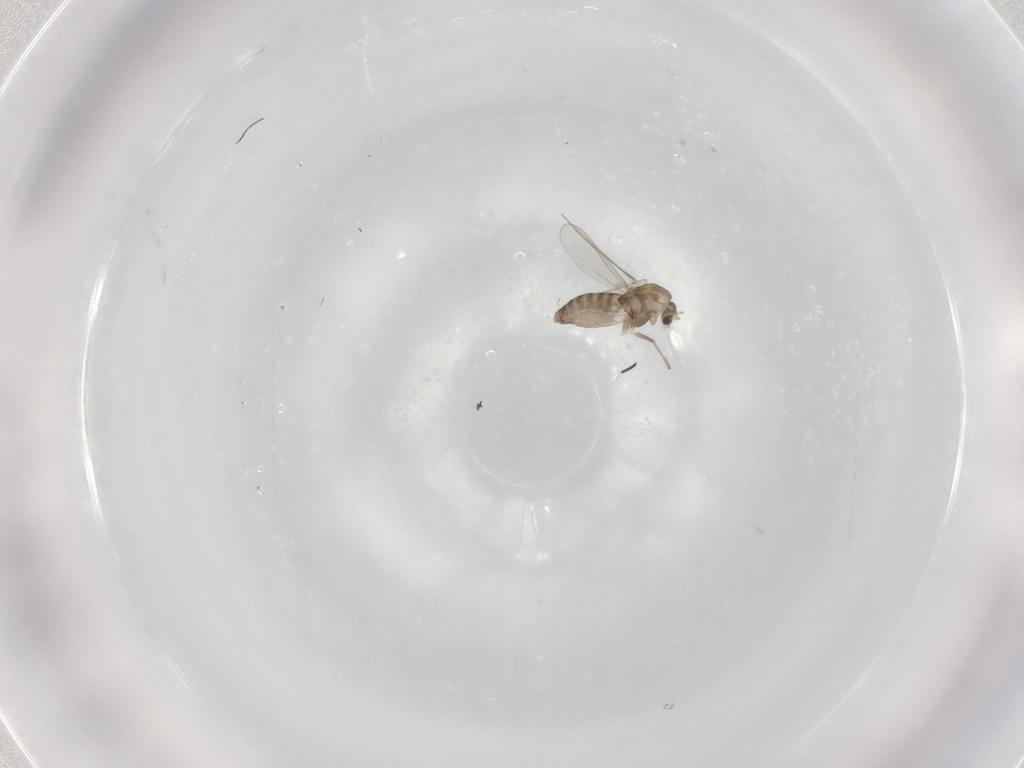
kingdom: Animalia
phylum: Arthropoda
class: Insecta
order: Diptera
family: Chironomidae
